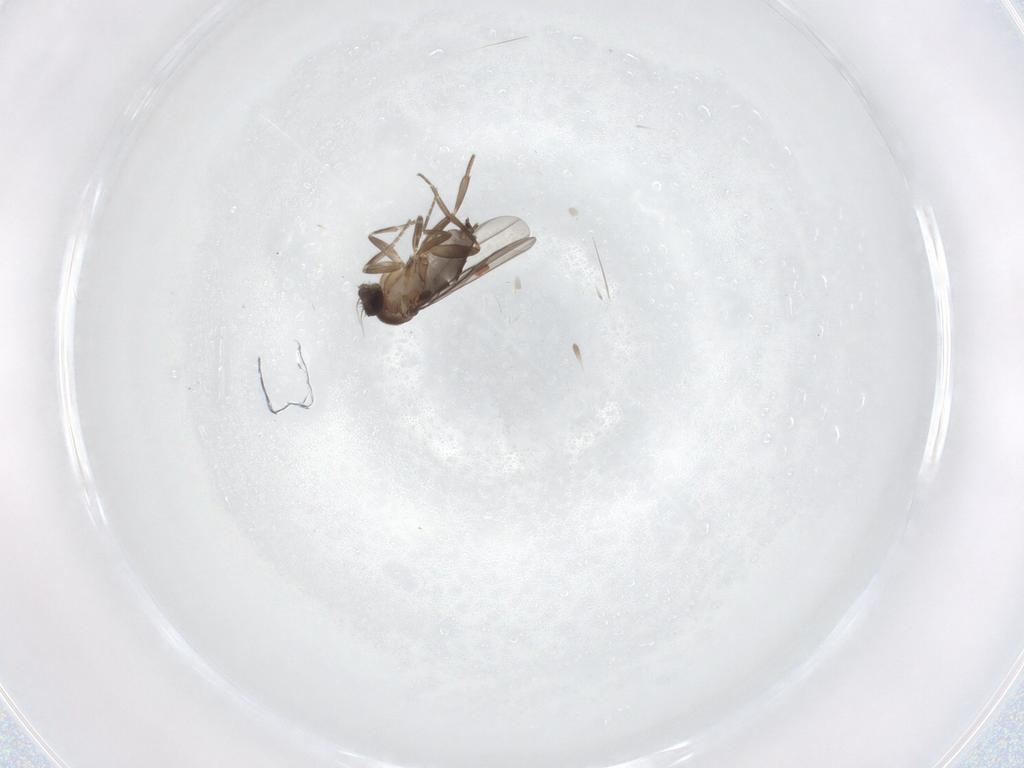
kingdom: Animalia
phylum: Arthropoda
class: Insecta
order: Diptera
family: Phoridae
